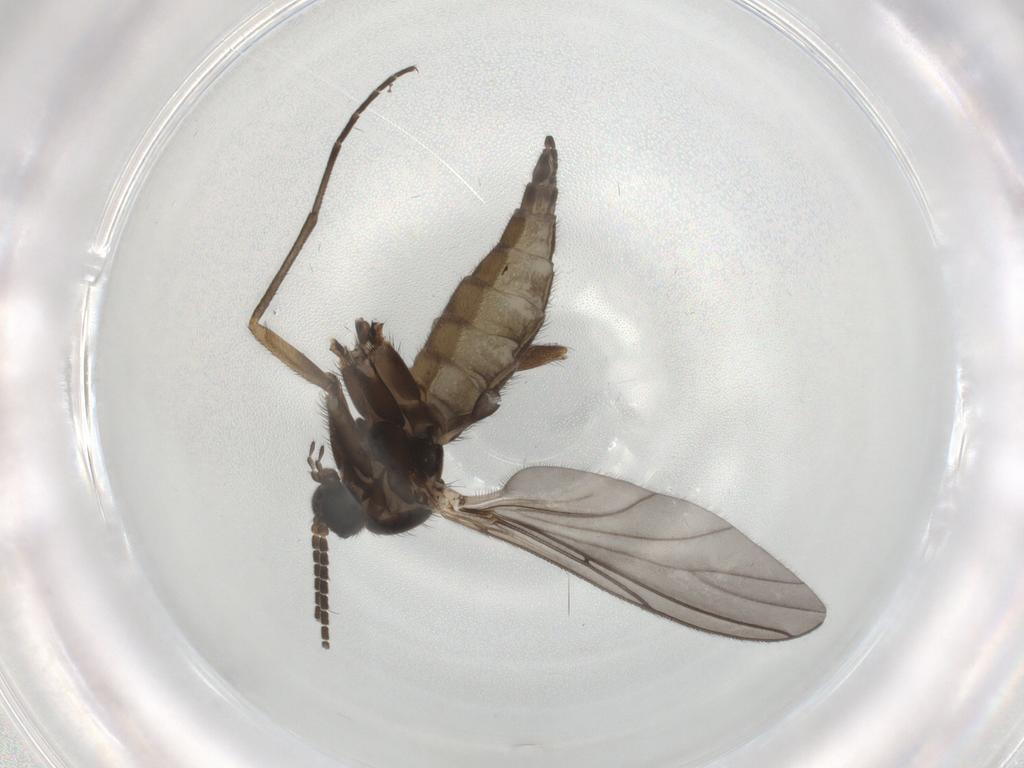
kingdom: Animalia
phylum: Arthropoda
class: Insecta
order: Diptera
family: Limoniidae
